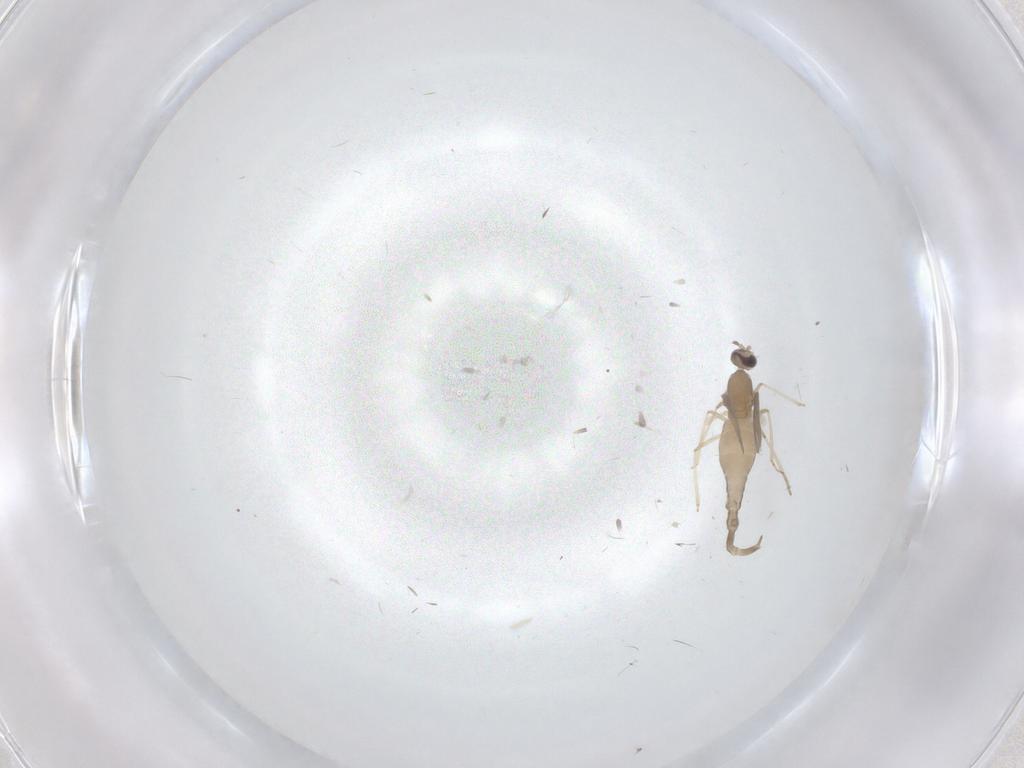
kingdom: Animalia
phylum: Arthropoda
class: Insecta
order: Diptera
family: Cecidomyiidae
